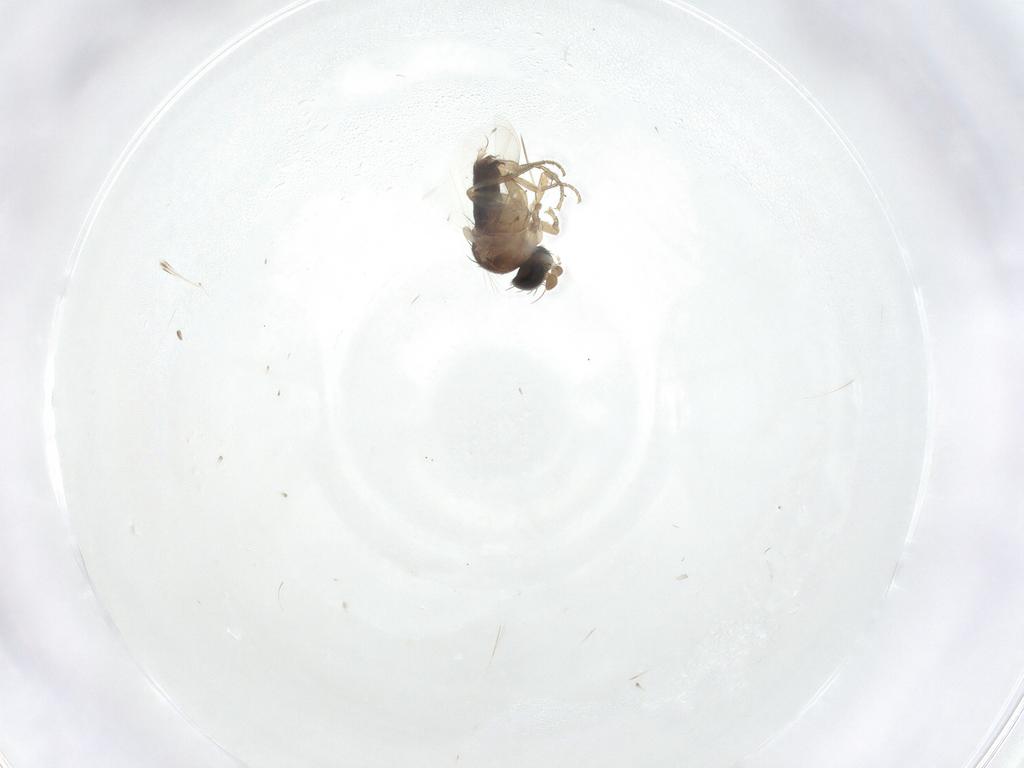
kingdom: Animalia
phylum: Arthropoda
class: Insecta
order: Diptera
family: Phoridae
